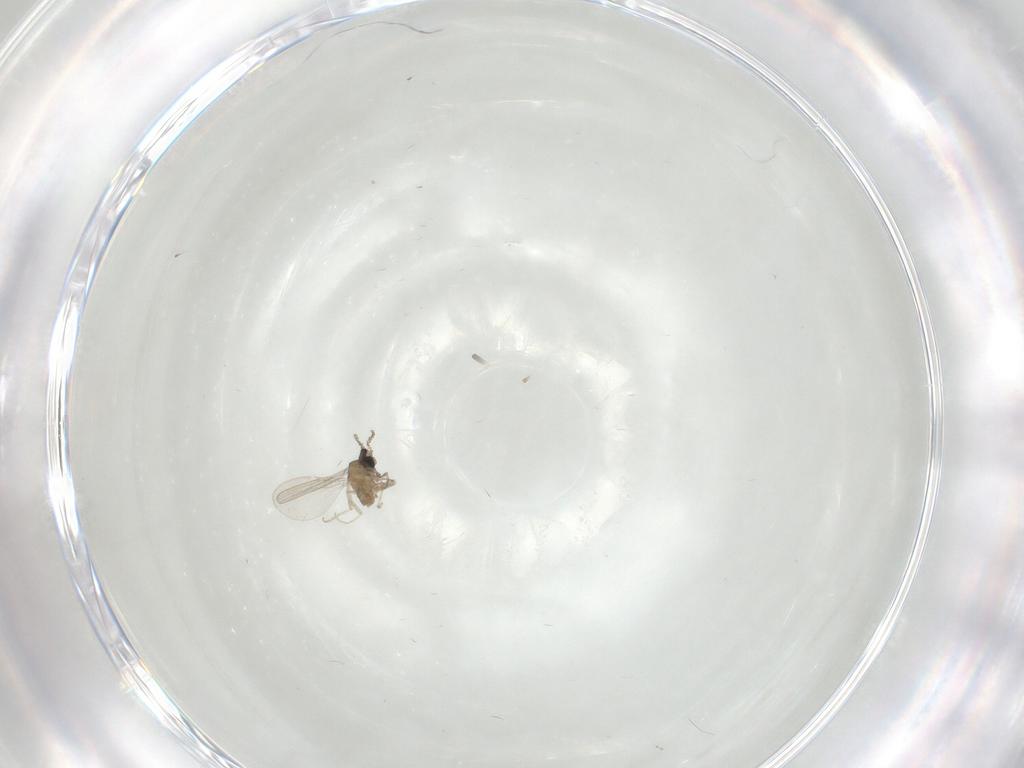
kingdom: Animalia
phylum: Arthropoda
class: Insecta
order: Diptera
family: Cecidomyiidae
